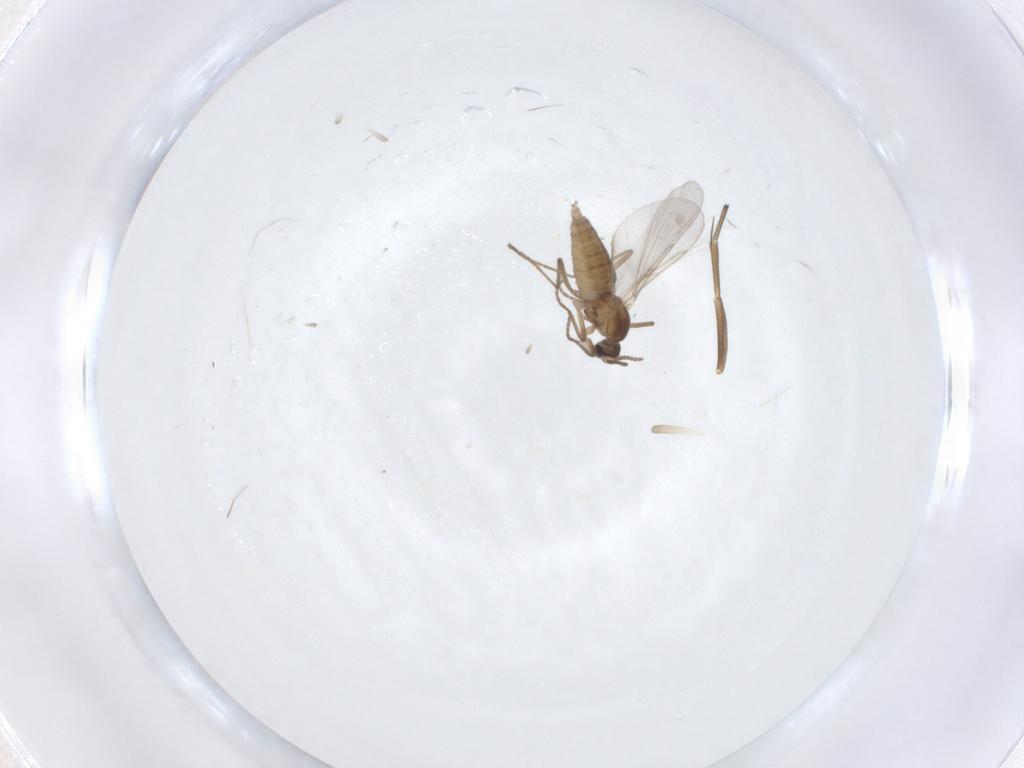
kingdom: Animalia
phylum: Arthropoda
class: Insecta
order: Diptera
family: Cecidomyiidae
